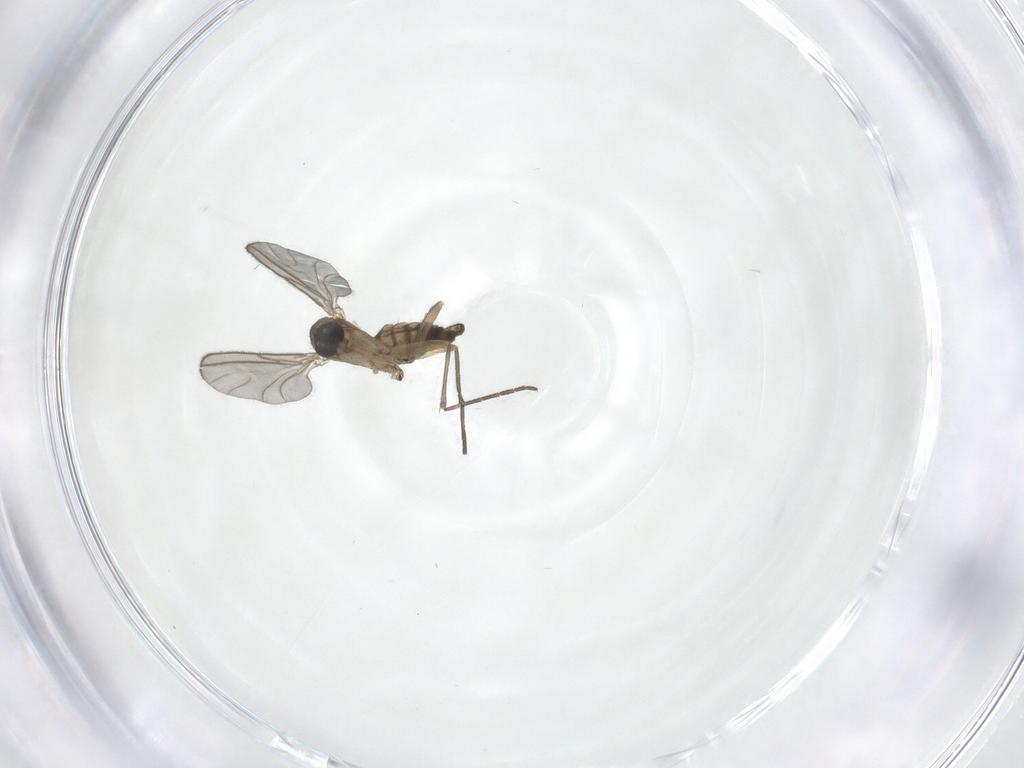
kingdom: Animalia
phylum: Arthropoda
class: Insecta
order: Diptera
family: Sciaridae
